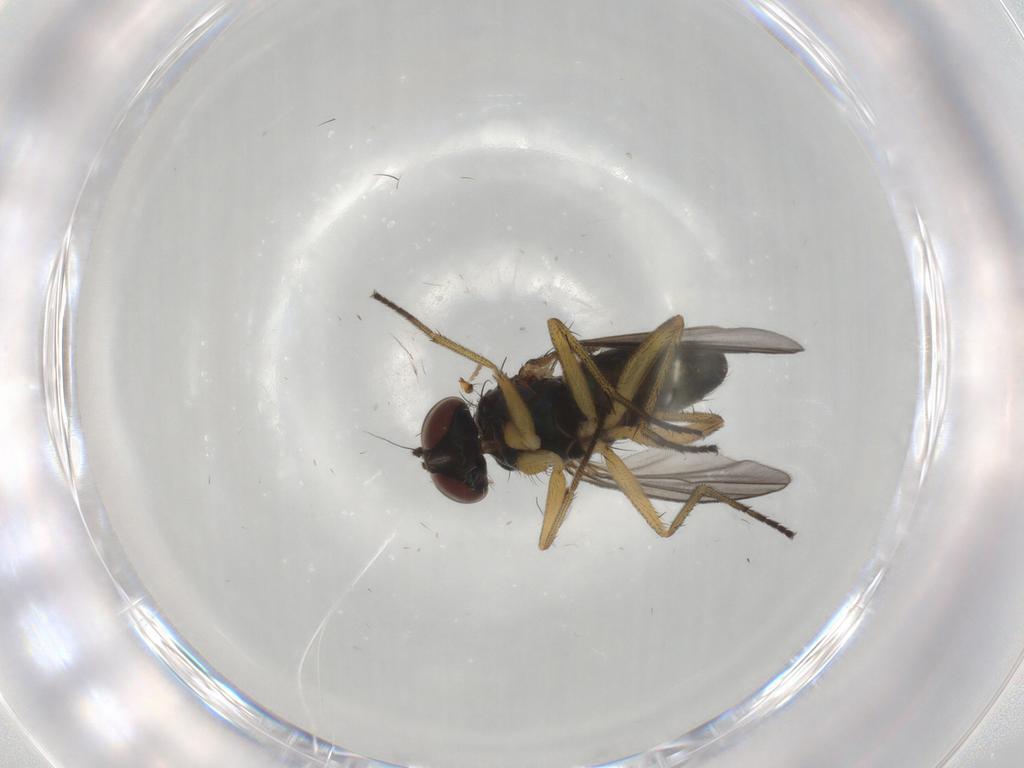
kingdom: Animalia
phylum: Arthropoda
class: Insecta
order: Diptera
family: Dolichopodidae
